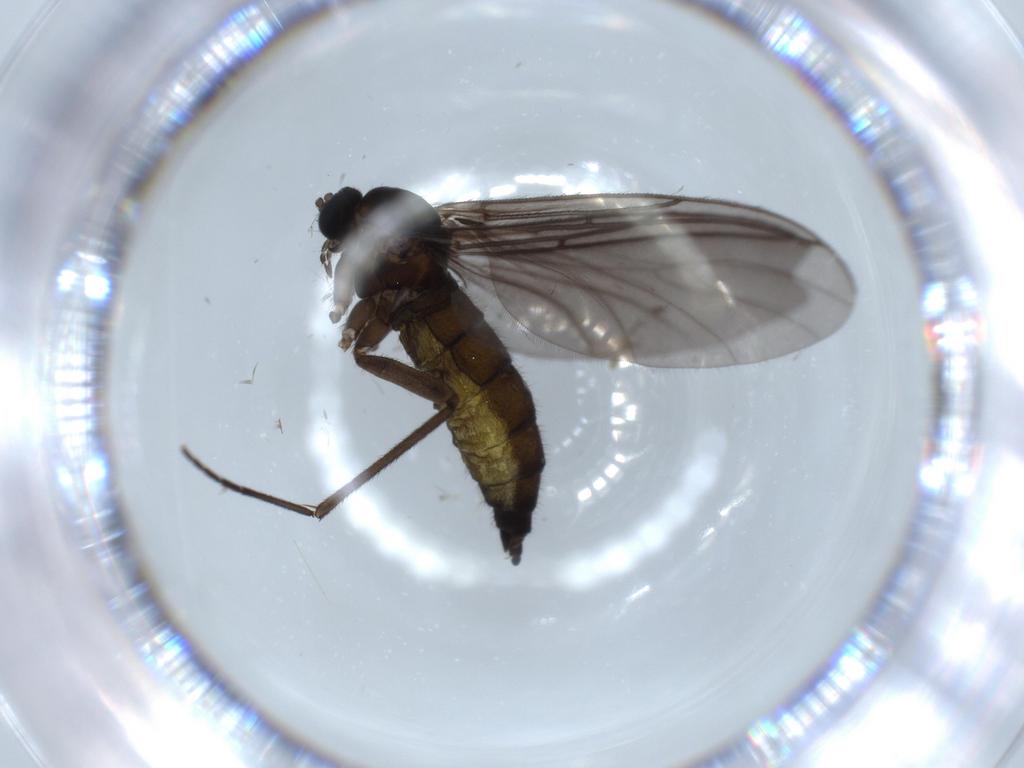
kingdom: Animalia
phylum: Arthropoda
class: Insecta
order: Diptera
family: Sciaridae
